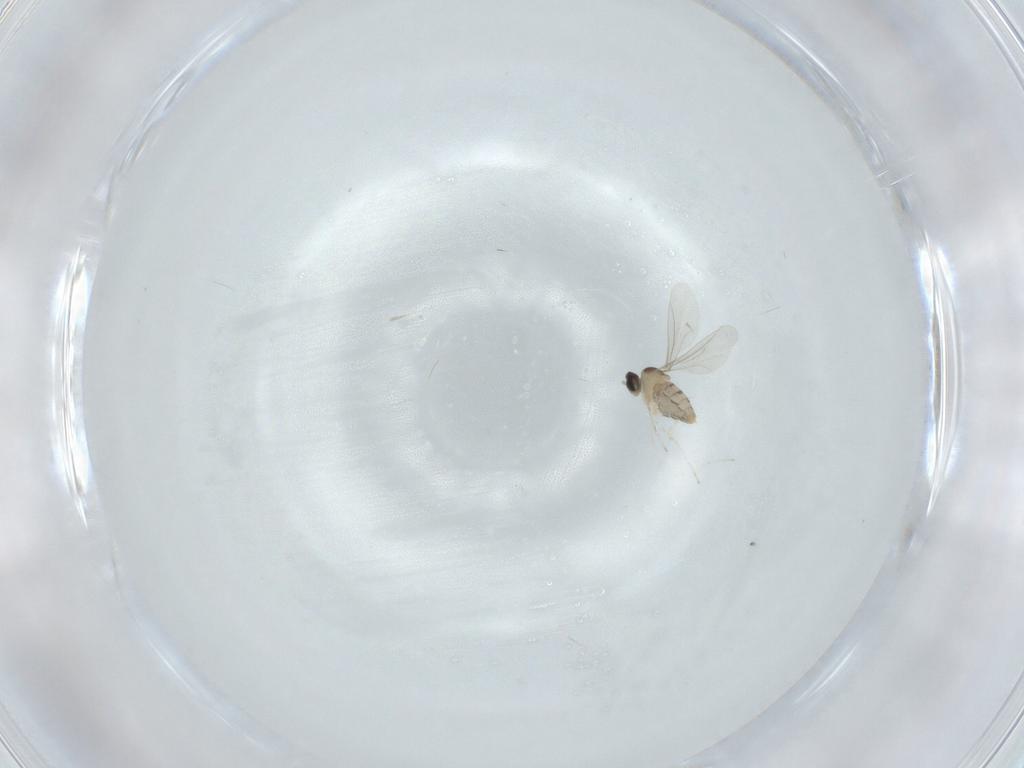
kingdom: Animalia
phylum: Arthropoda
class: Insecta
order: Diptera
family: Cecidomyiidae
